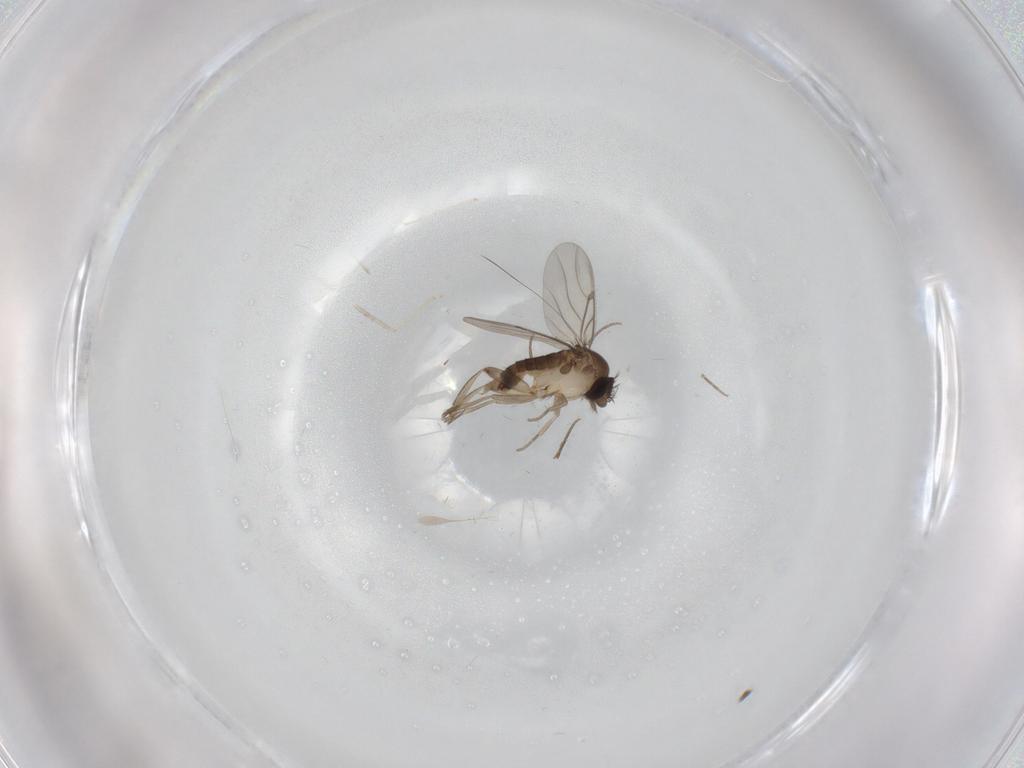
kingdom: Animalia
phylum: Arthropoda
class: Insecta
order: Diptera
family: Phoridae
